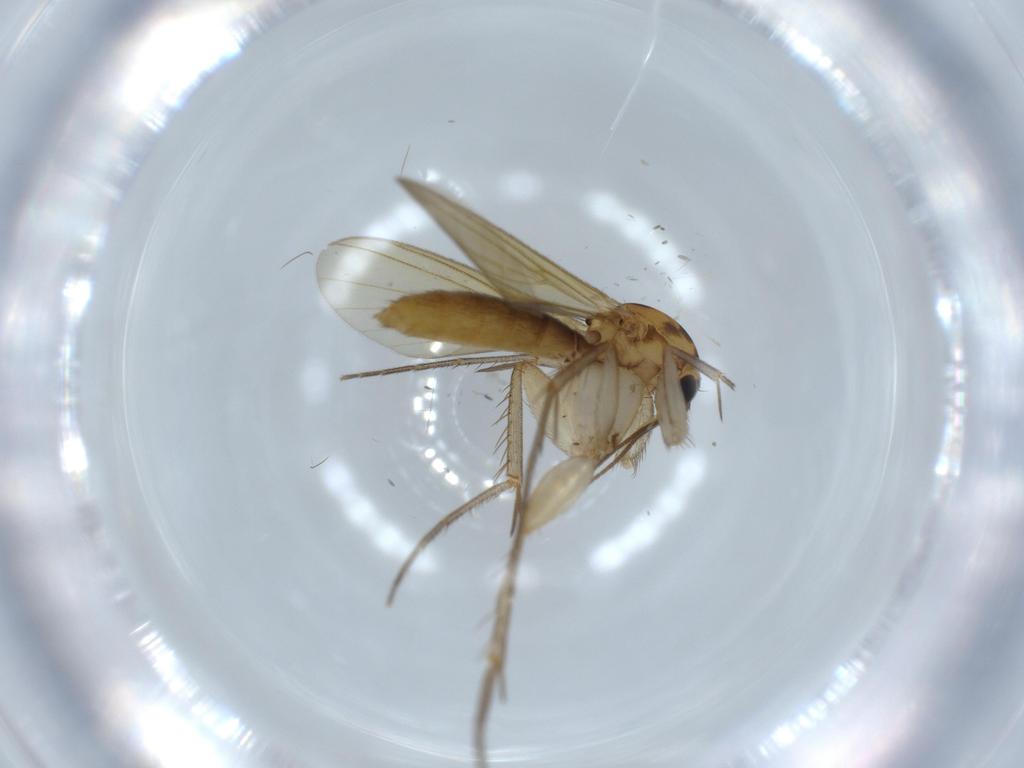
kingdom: Animalia
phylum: Arthropoda
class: Insecta
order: Diptera
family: Mycetophilidae
